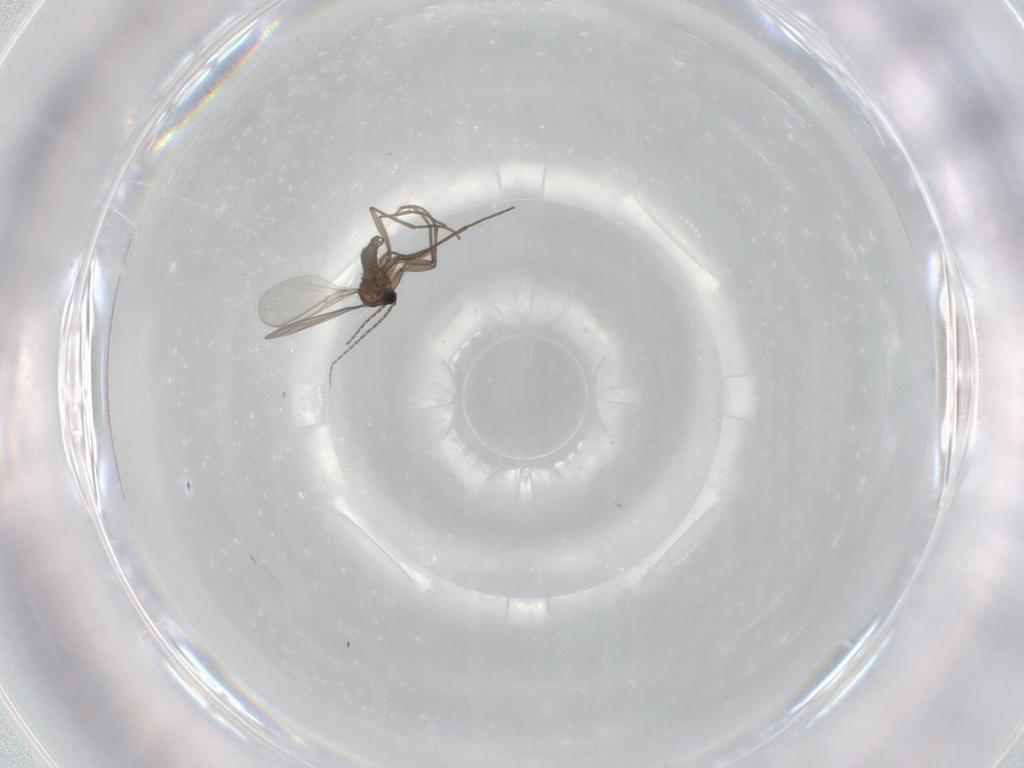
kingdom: Animalia
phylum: Arthropoda
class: Insecta
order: Diptera
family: Sciaridae
